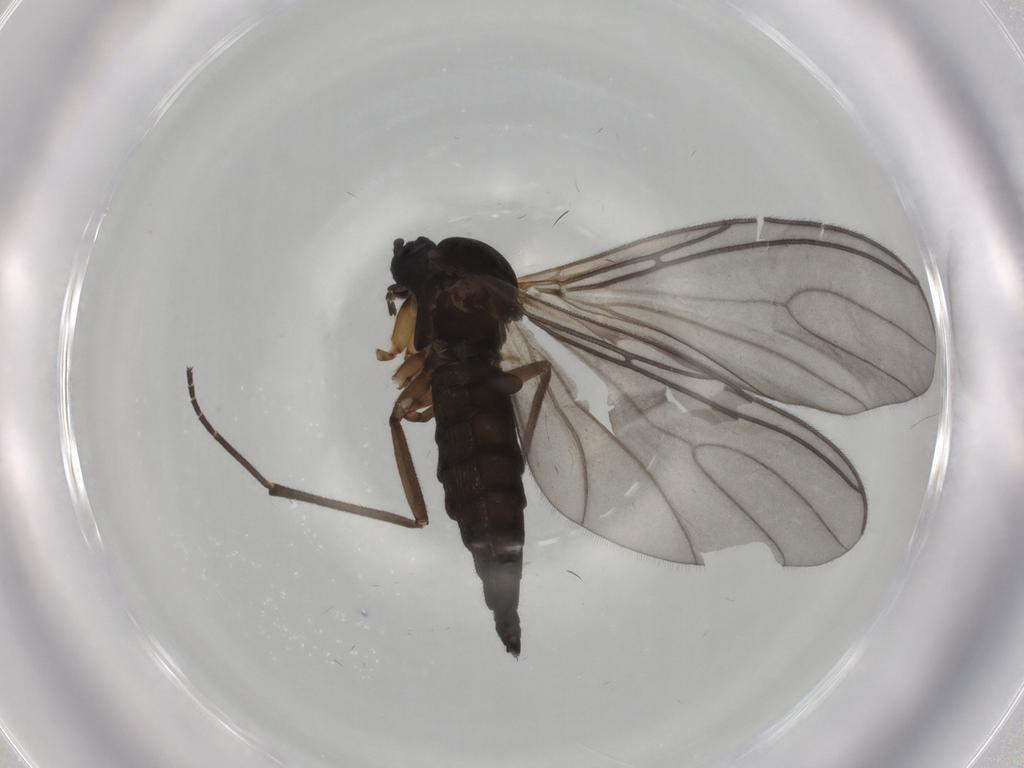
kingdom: Animalia
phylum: Arthropoda
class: Insecta
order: Diptera
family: Sciaridae
